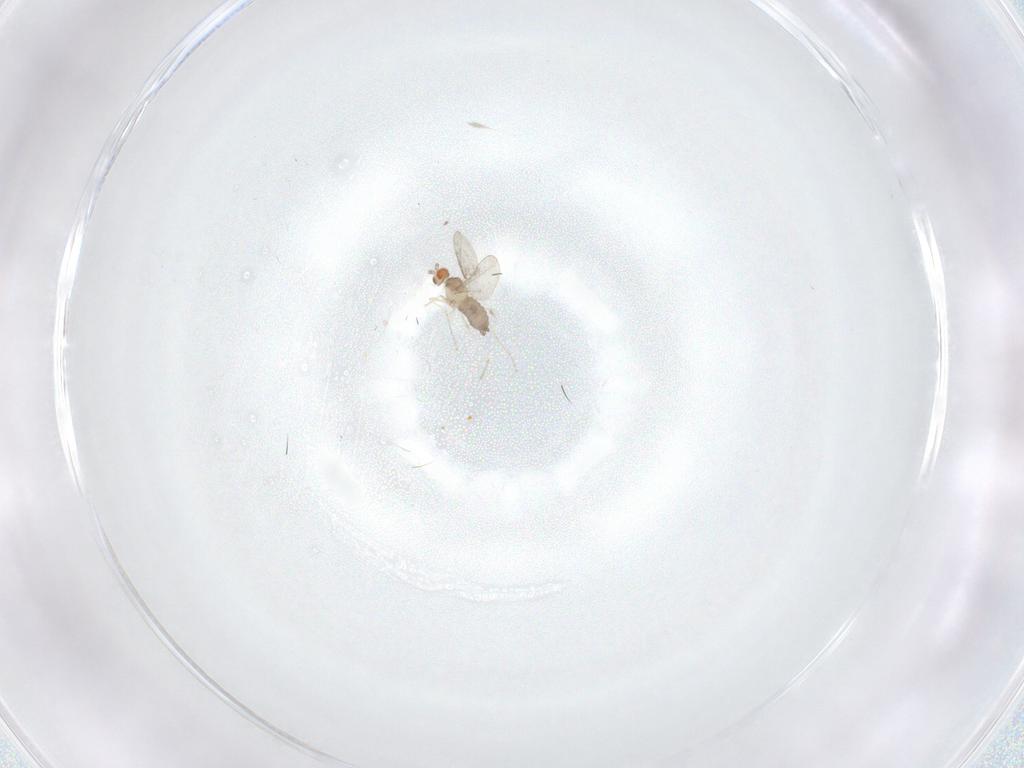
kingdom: Animalia
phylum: Arthropoda
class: Insecta
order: Diptera
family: Cecidomyiidae
